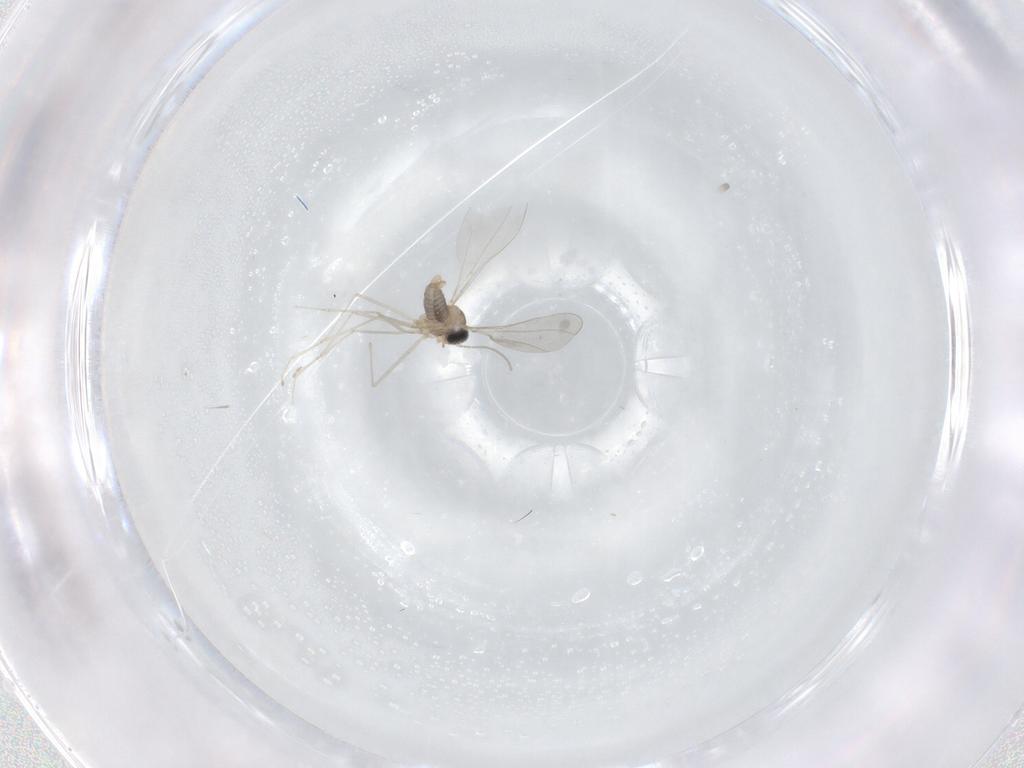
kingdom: Animalia
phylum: Arthropoda
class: Insecta
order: Diptera
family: Cecidomyiidae
